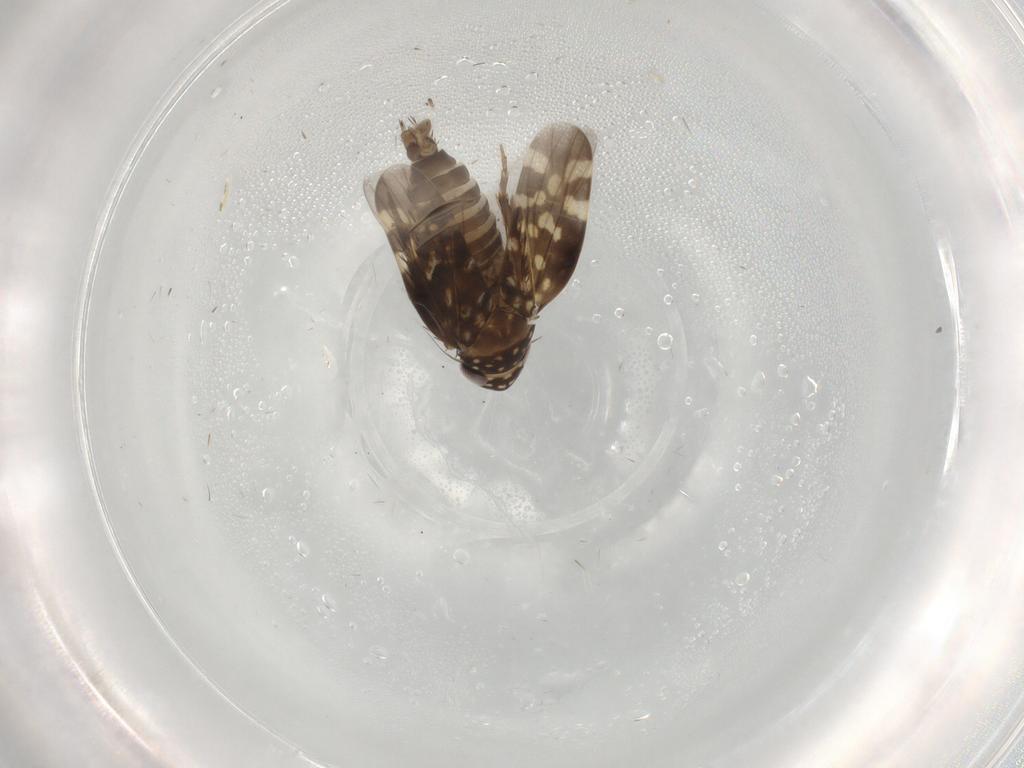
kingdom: Animalia
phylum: Arthropoda
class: Insecta
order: Hemiptera
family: Cicadellidae
